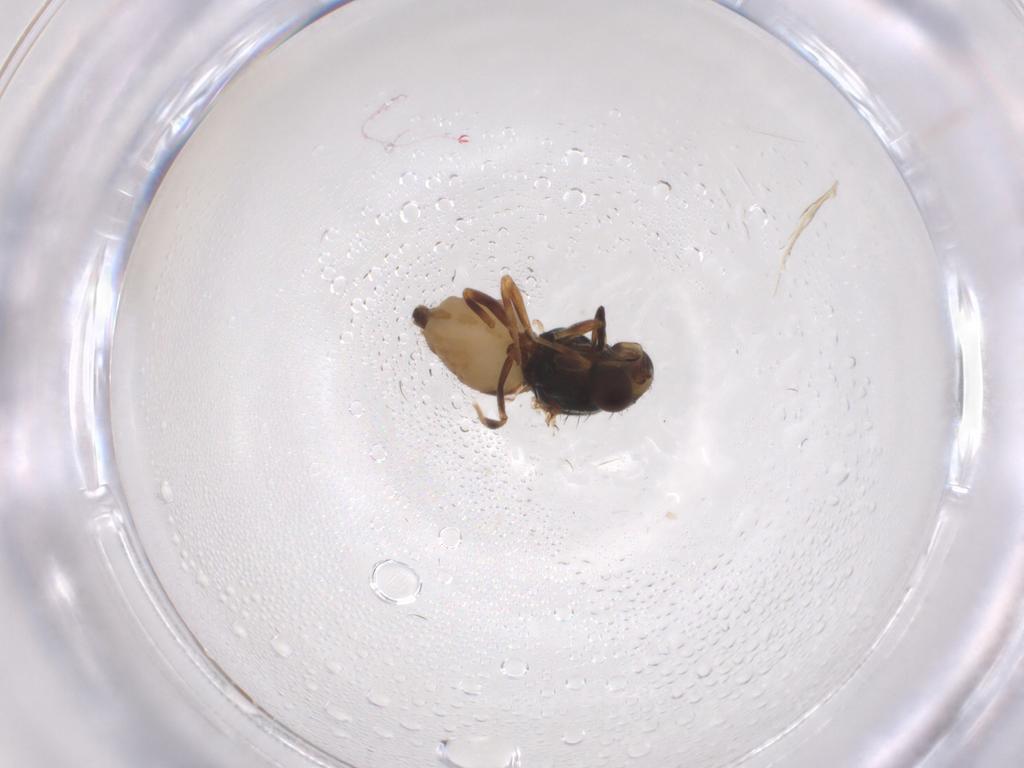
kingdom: Animalia
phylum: Arthropoda
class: Insecta
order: Diptera
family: Chloropidae
